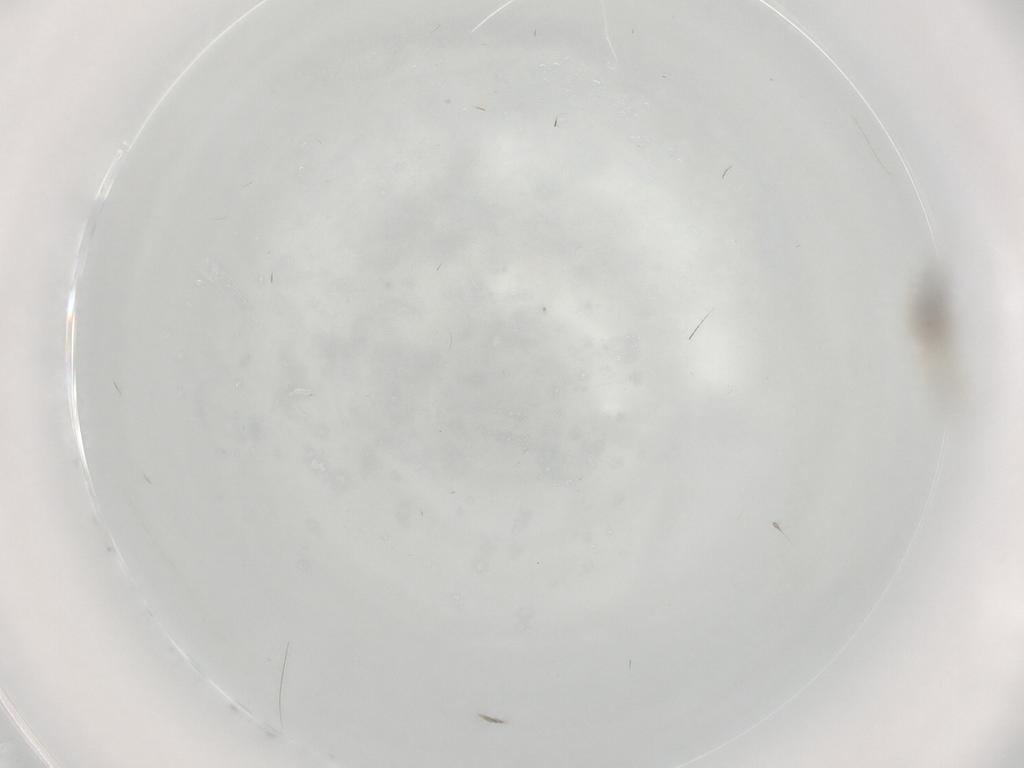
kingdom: Animalia
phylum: Arthropoda
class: Insecta
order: Diptera
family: Cecidomyiidae
